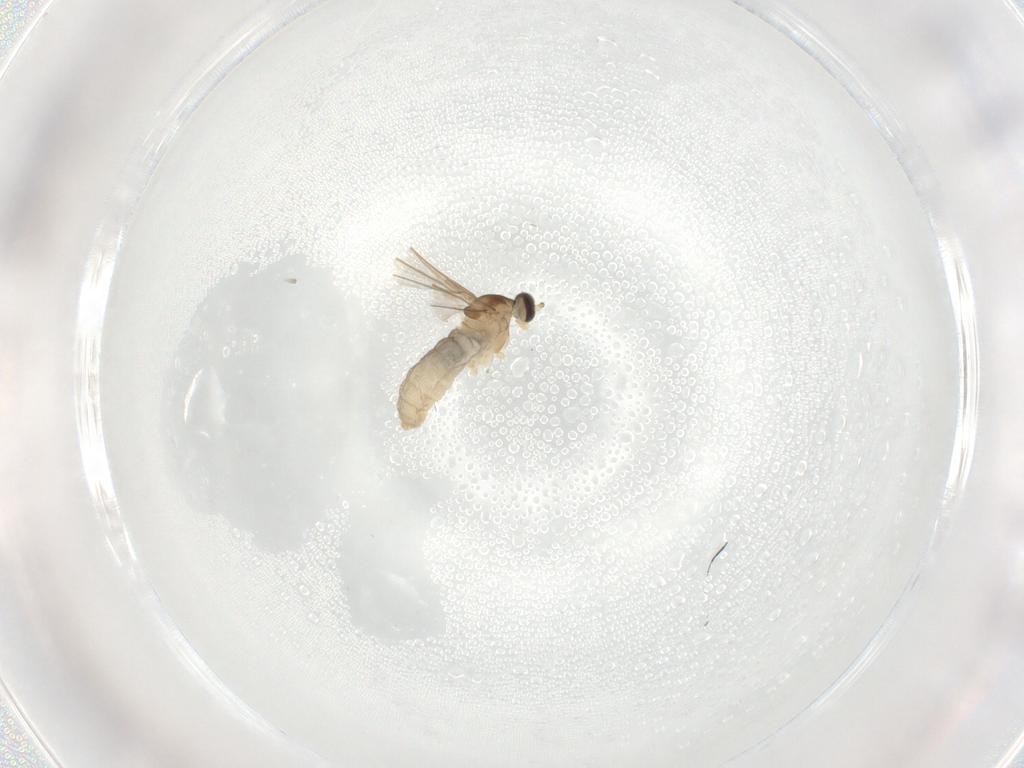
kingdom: Animalia
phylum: Arthropoda
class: Insecta
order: Diptera
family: Cecidomyiidae
